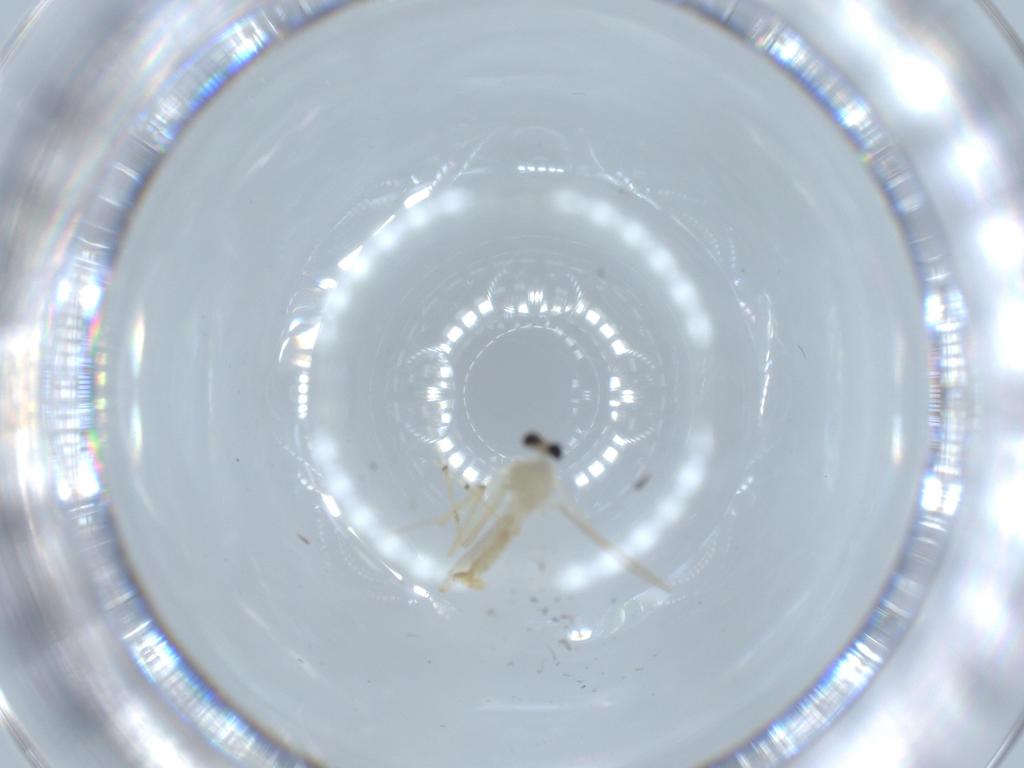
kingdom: Animalia
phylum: Arthropoda
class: Insecta
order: Diptera
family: Chironomidae
